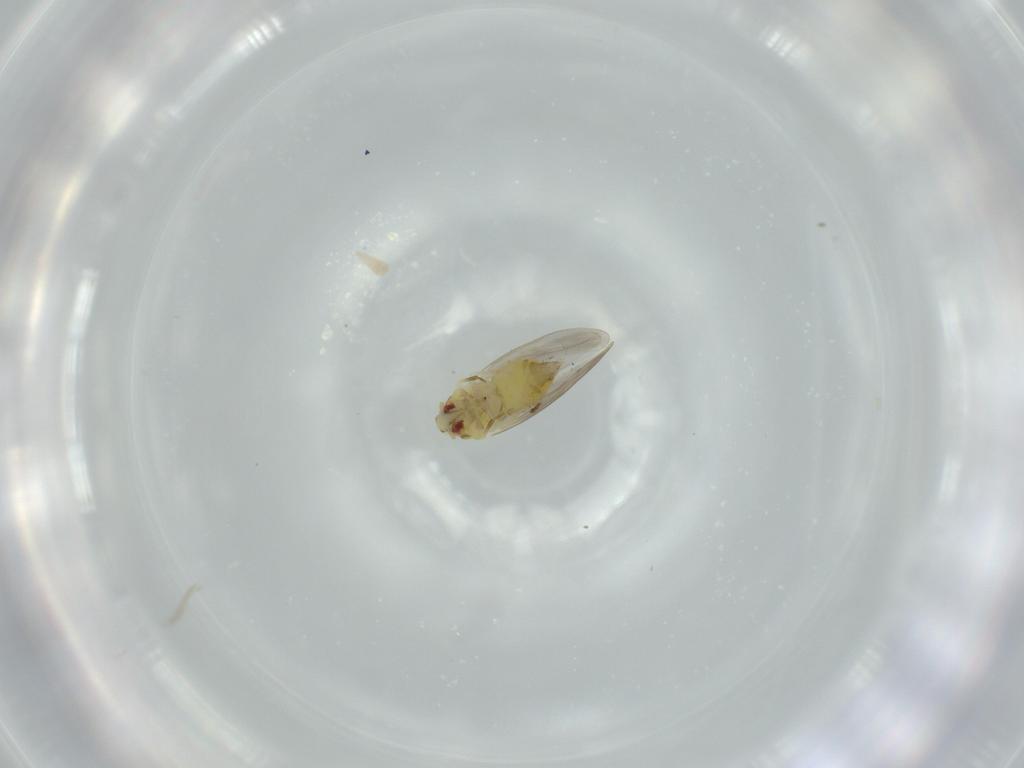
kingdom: Animalia
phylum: Arthropoda
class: Insecta
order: Hemiptera
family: Aleyrodidae
